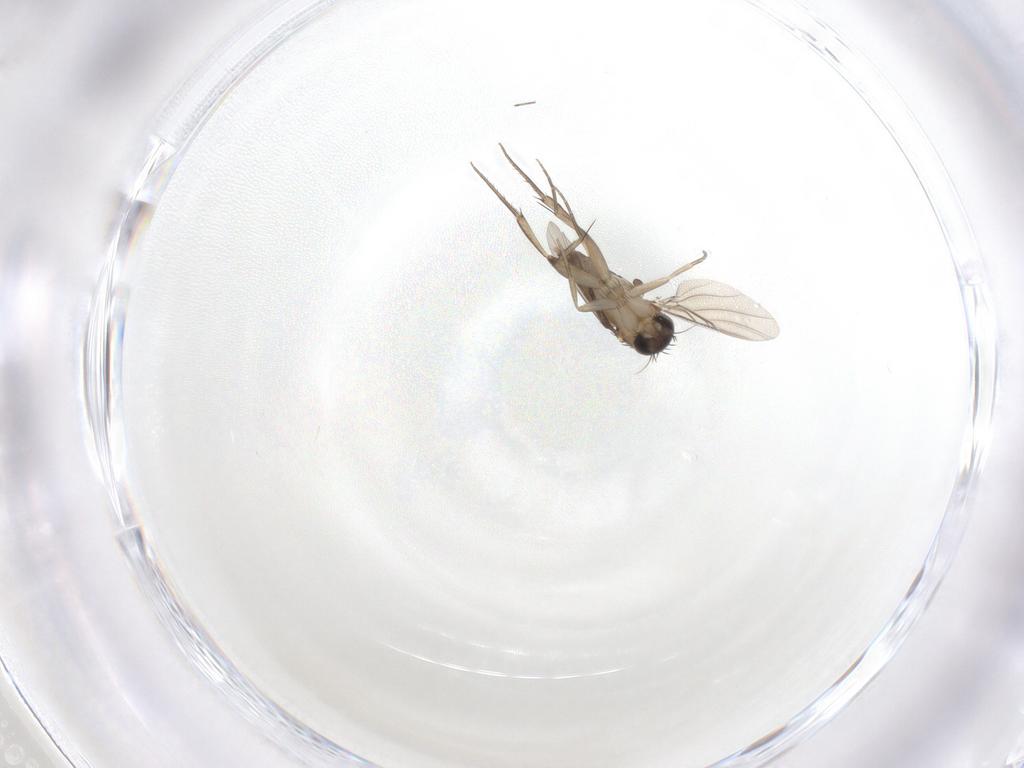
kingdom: Animalia
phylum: Arthropoda
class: Insecta
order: Diptera
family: Phoridae
